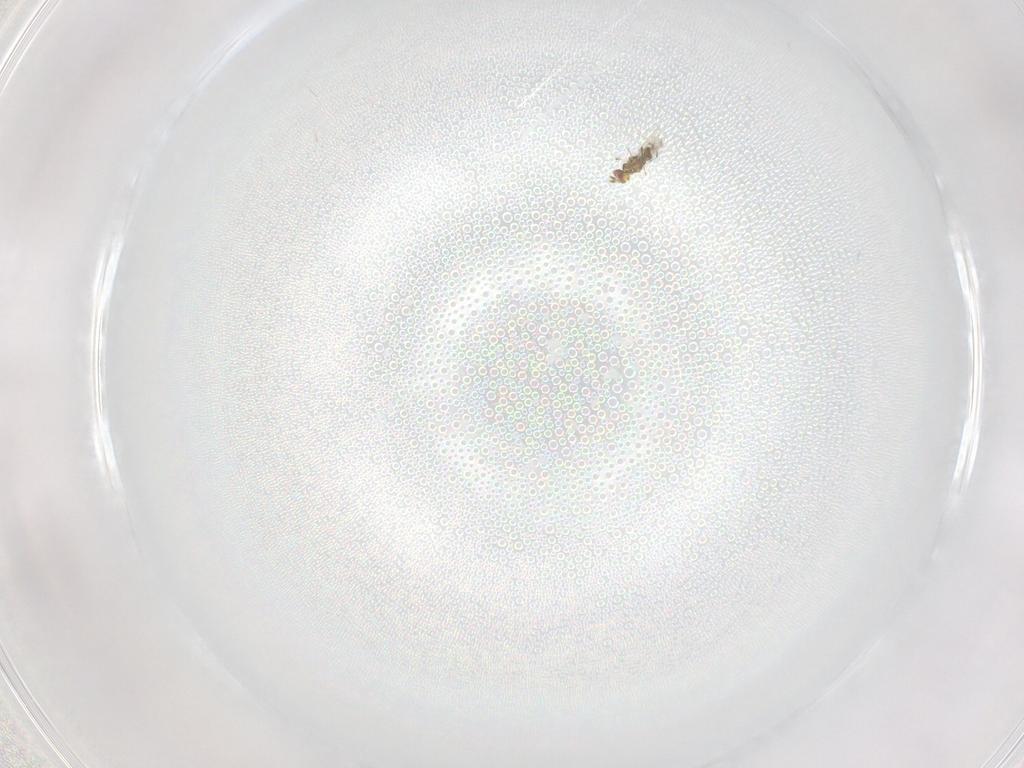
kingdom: Animalia
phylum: Arthropoda
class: Insecta
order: Hymenoptera
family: Eulophidae
